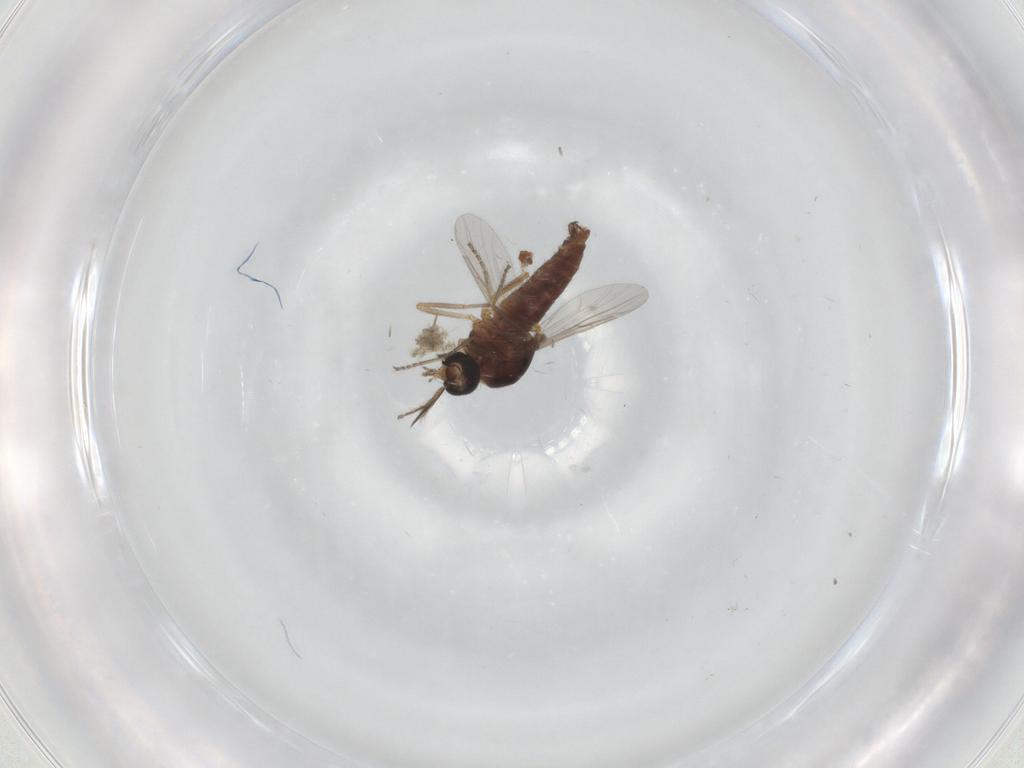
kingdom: Animalia
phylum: Arthropoda
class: Insecta
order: Diptera
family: Ceratopogonidae
